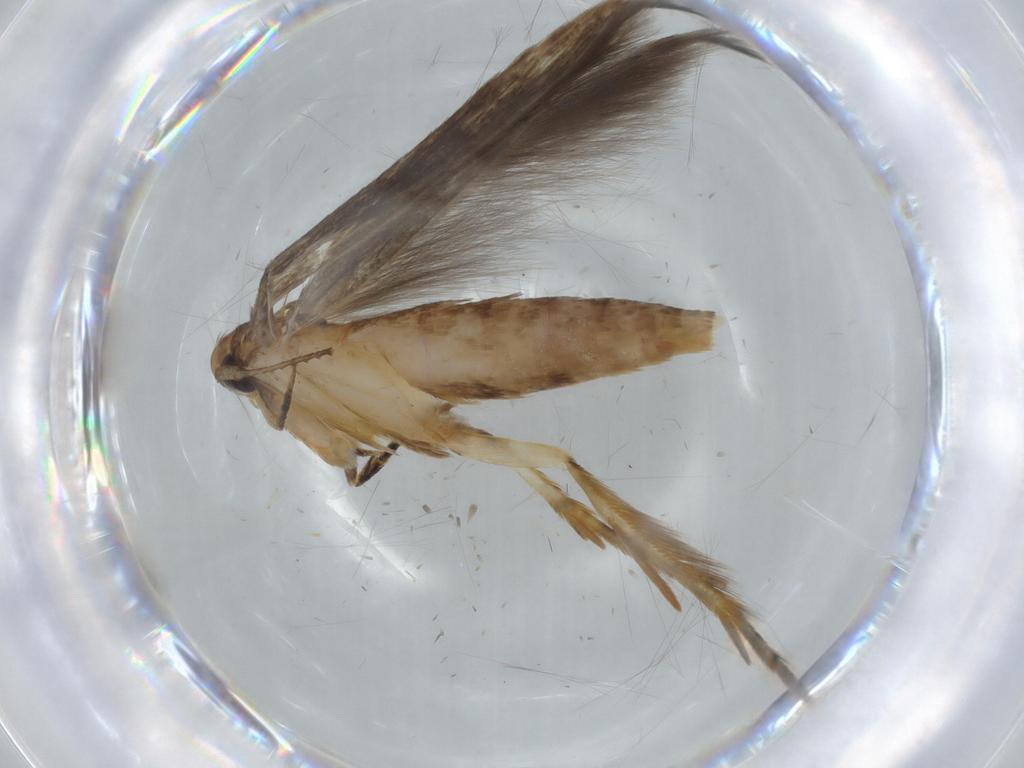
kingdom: Animalia
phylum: Arthropoda
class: Insecta
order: Lepidoptera
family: Heliodinidae
